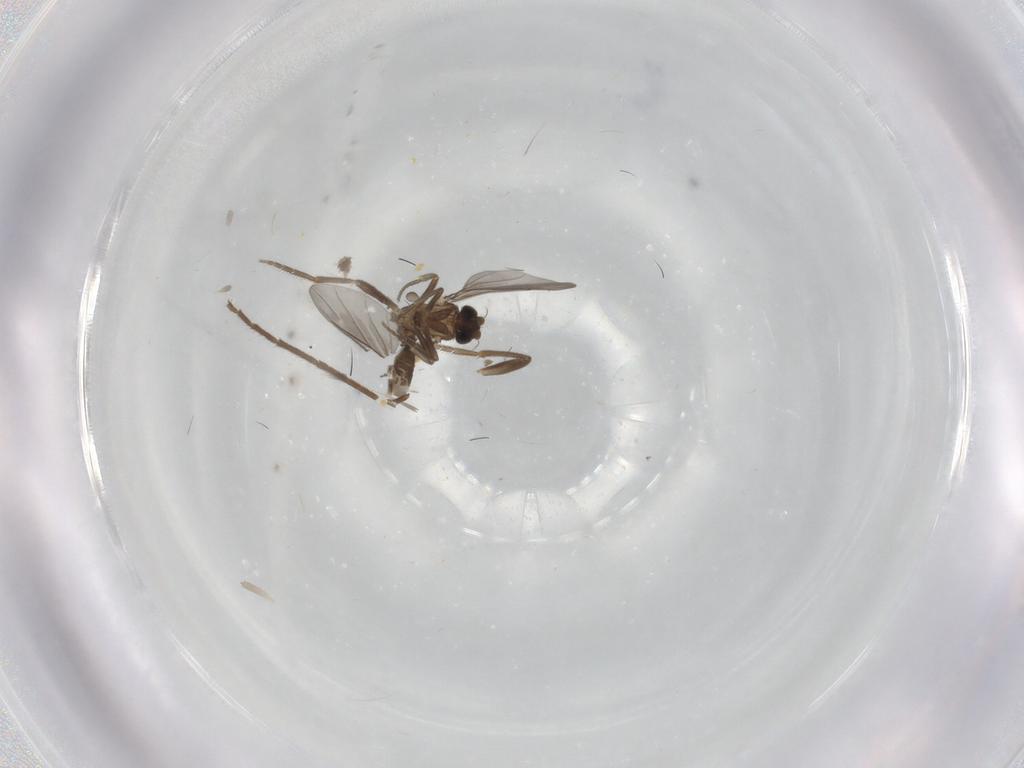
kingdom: Animalia
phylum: Arthropoda
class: Insecta
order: Diptera
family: Chironomidae
